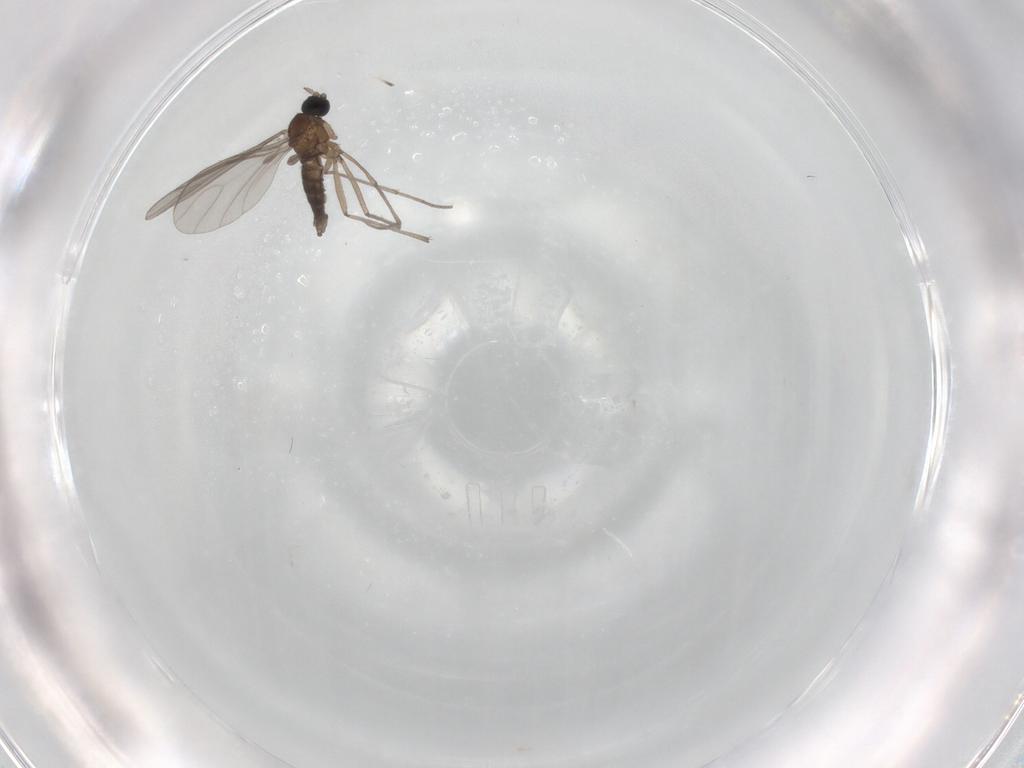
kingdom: Animalia
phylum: Arthropoda
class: Insecta
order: Diptera
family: Sciaridae
